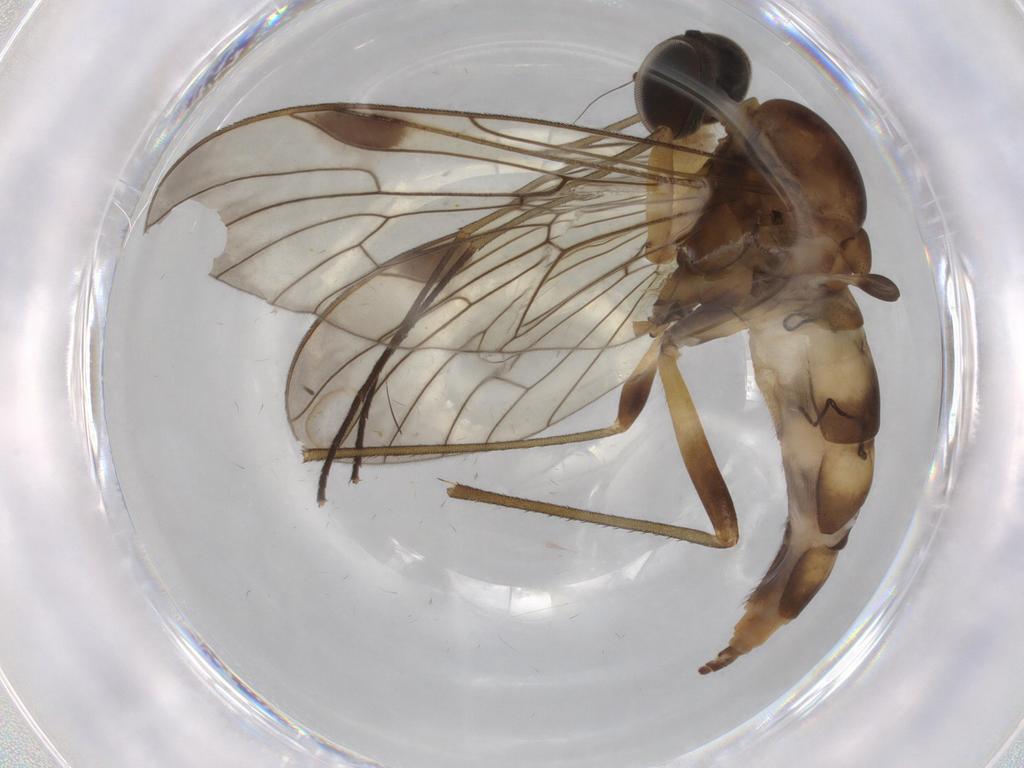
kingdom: Animalia
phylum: Arthropoda
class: Insecta
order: Diptera
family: Sciaridae
